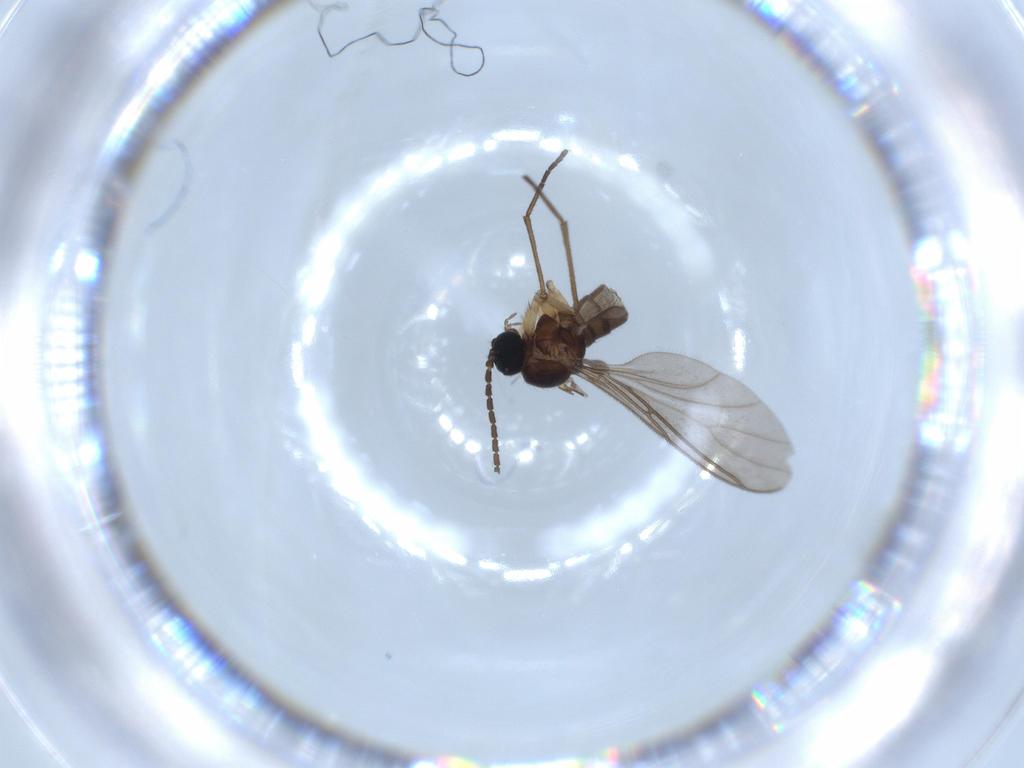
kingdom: Animalia
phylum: Arthropoda
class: Insecta
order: Diptera
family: Sciaridae
